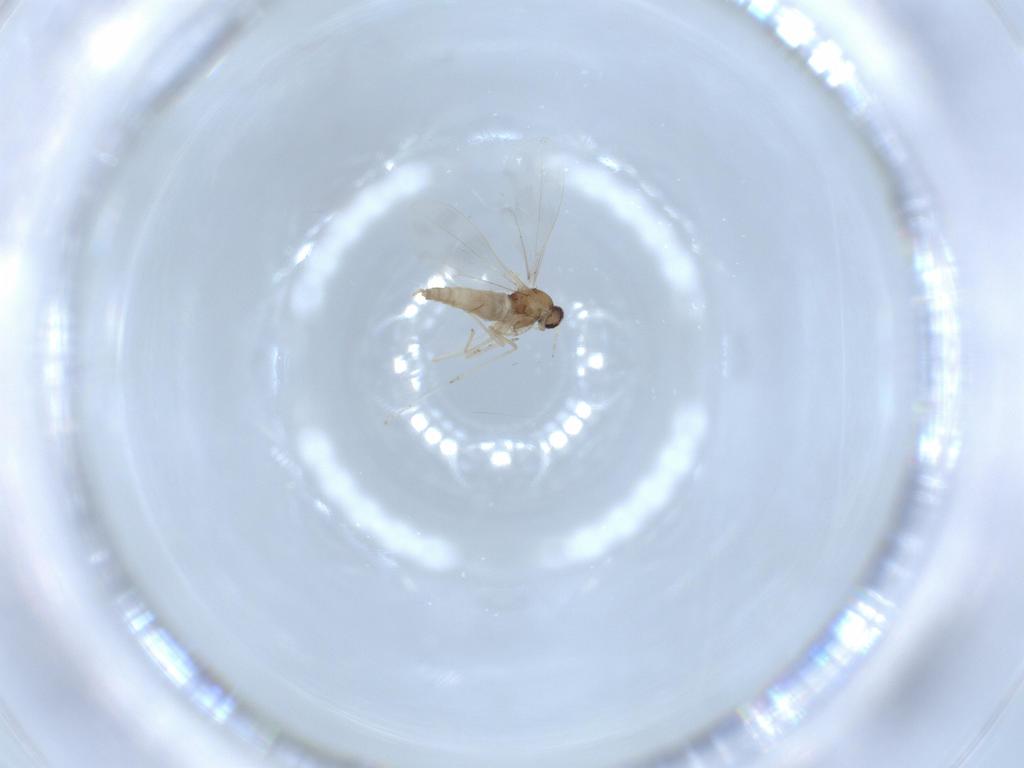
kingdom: Animalia
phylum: Arthropoda
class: Insecta
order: Diptera
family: Cecidomyiidae
